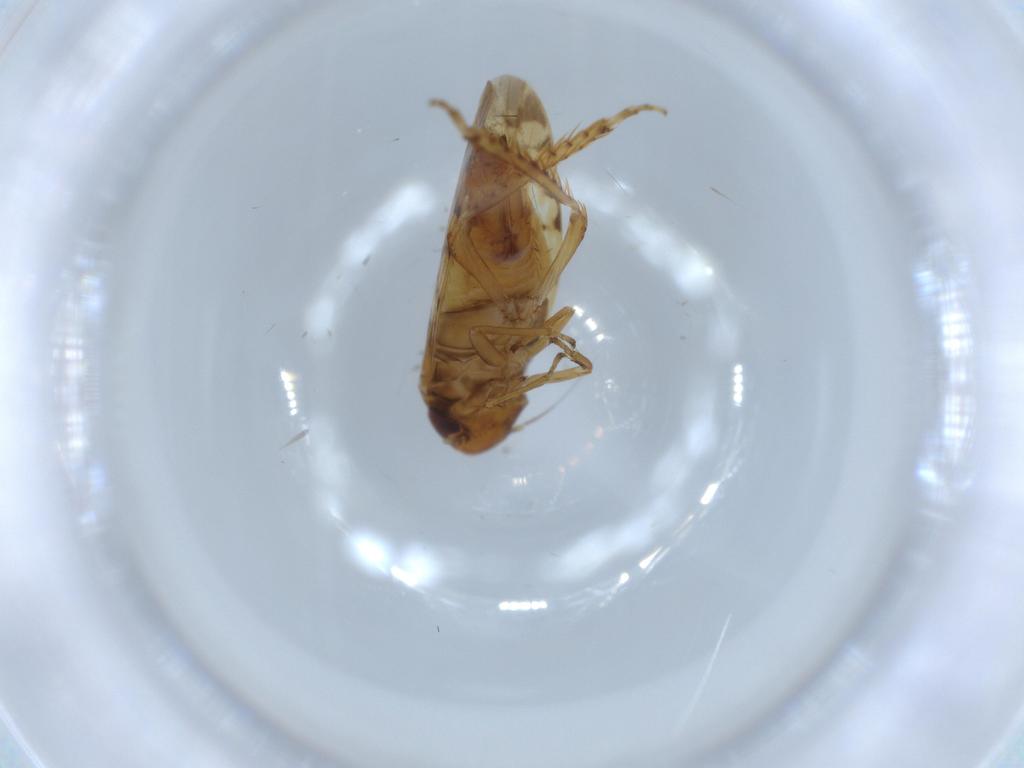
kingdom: Animalia
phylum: Arthropoda
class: Insecta
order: Hemiptera
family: Cicadellidae
